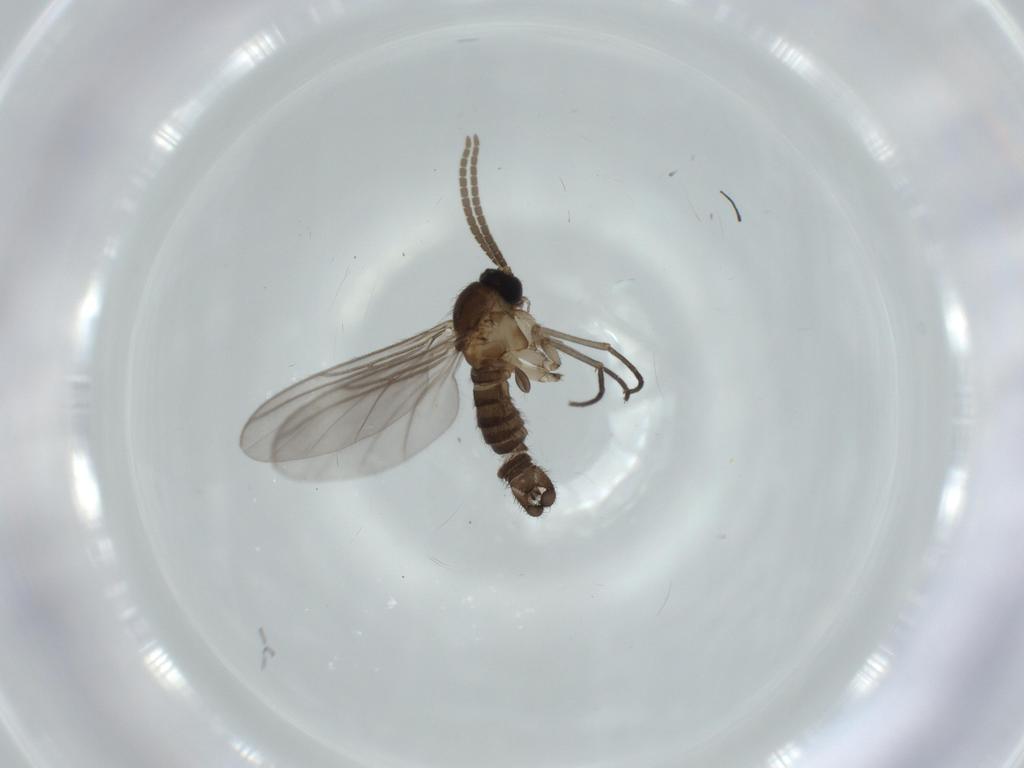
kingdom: Animalia
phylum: Arthropoda
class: Insecta
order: Diptera
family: Sciaridae
